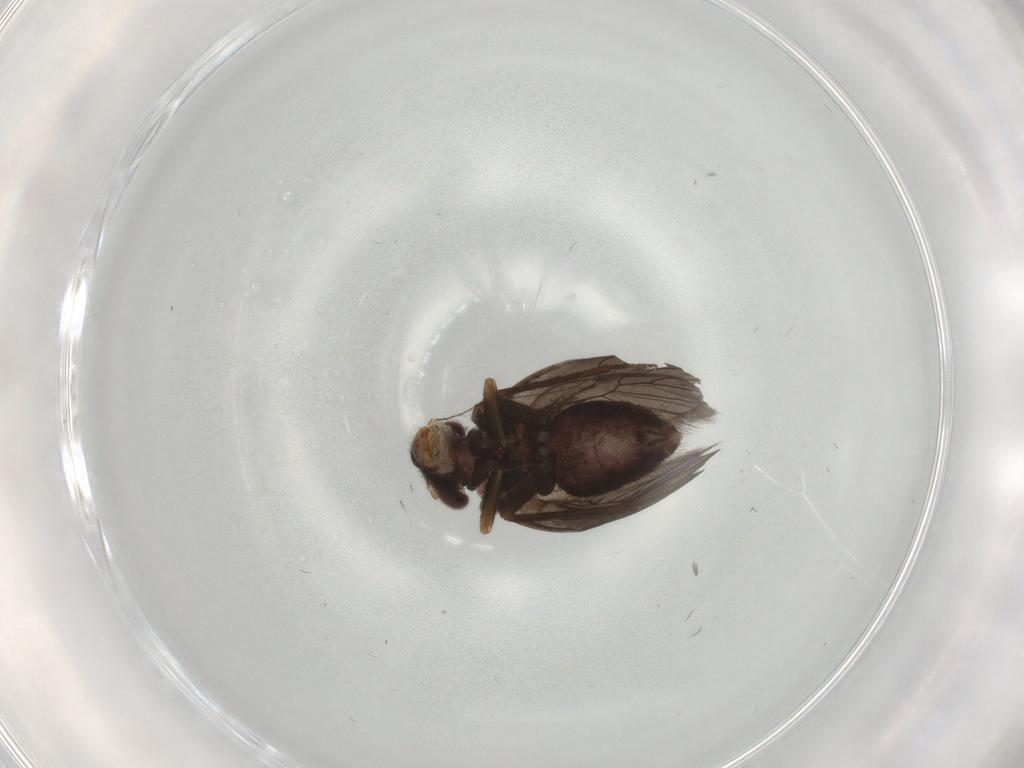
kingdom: Animalia
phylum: Arthropoda
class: Insecta
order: Psocodea
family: Lepidopsocidae
